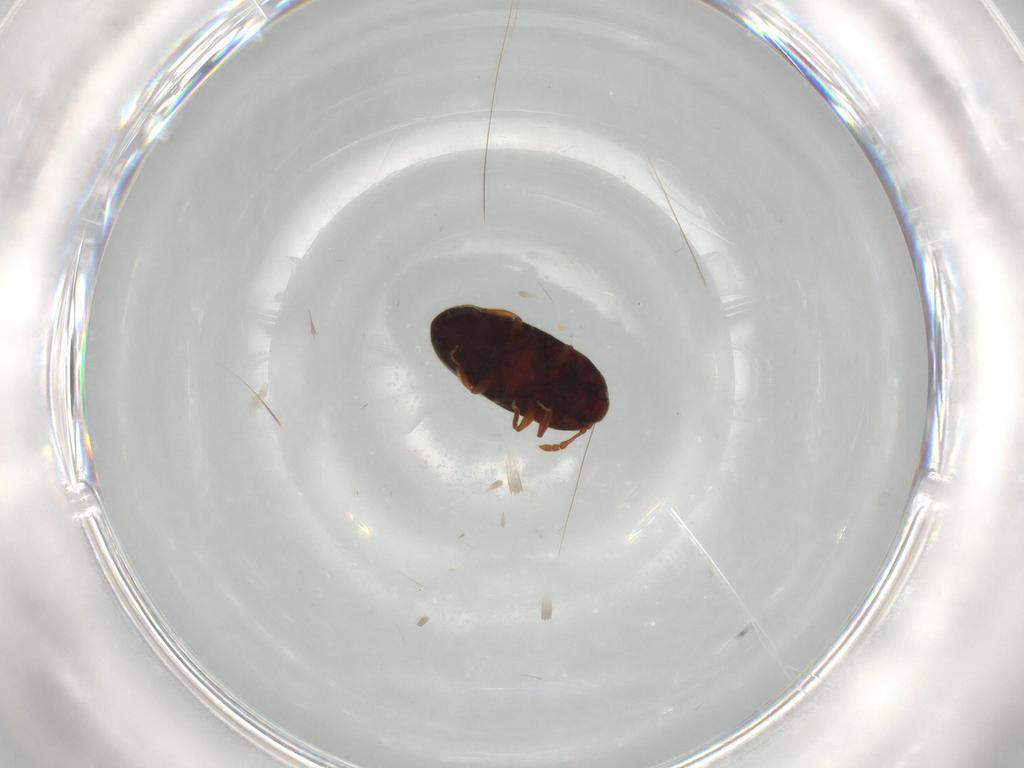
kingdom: Animalia
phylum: Arthropoda
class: Insecta
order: Coleoptera
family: Throscidae
